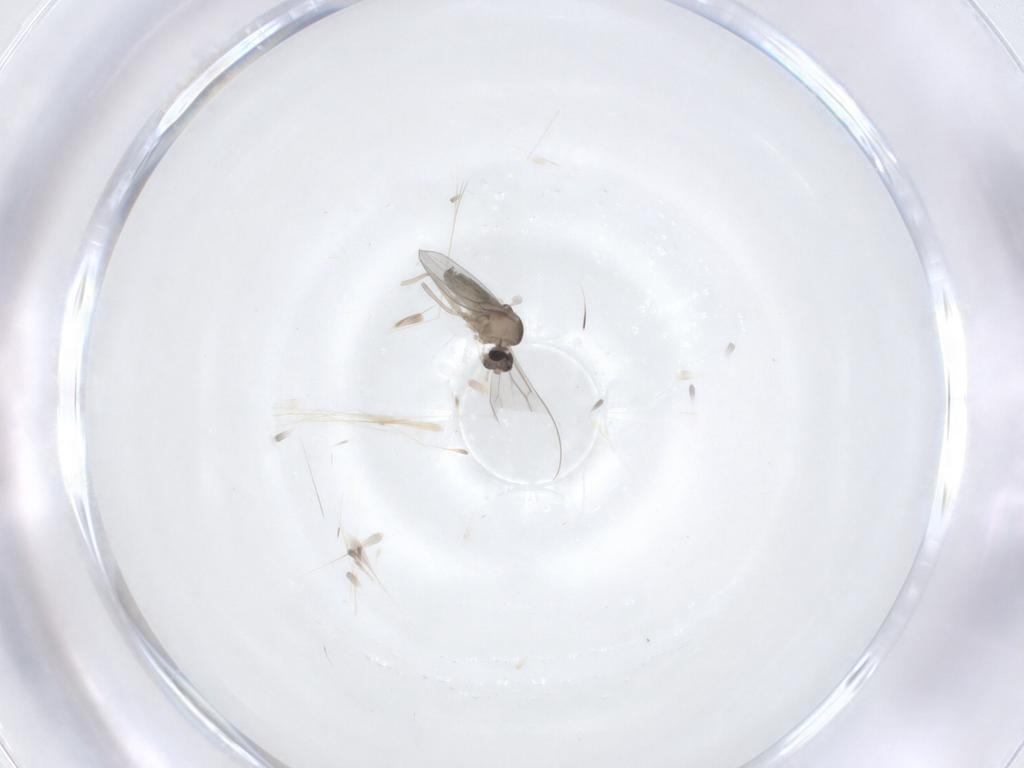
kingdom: Animalia
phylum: Arthropoda
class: Insecta
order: Diptera
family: Cecidomyiidae
